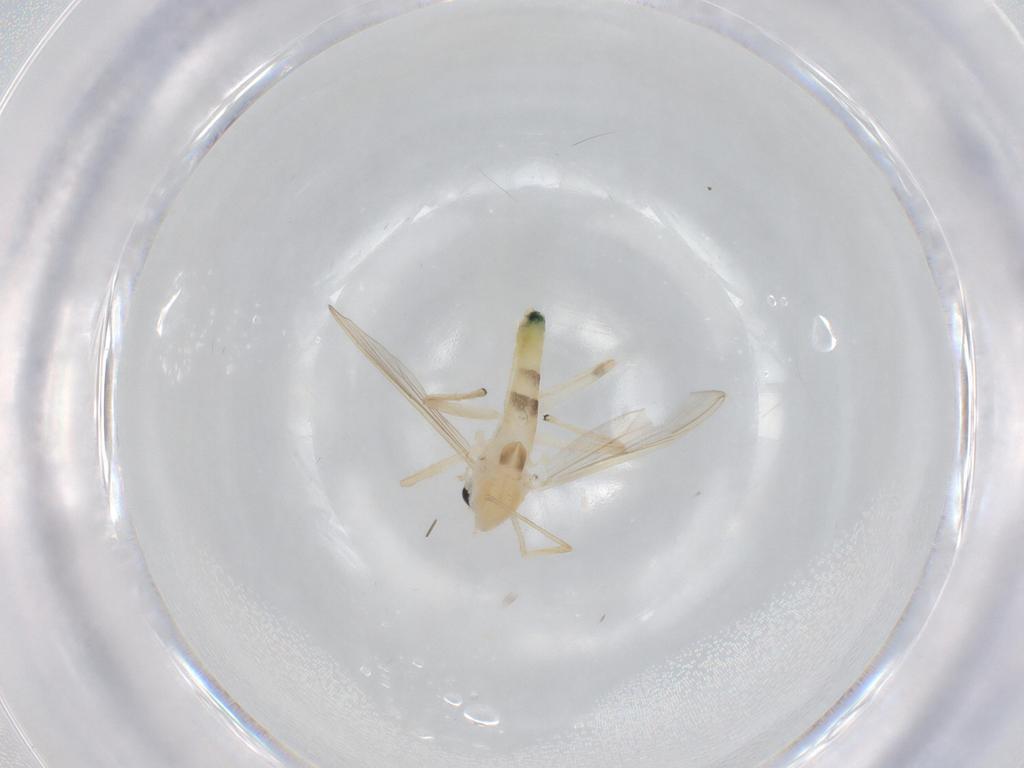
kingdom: Animalia
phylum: Arthropoda
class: Insecta
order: Diptera
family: Chironomidae
